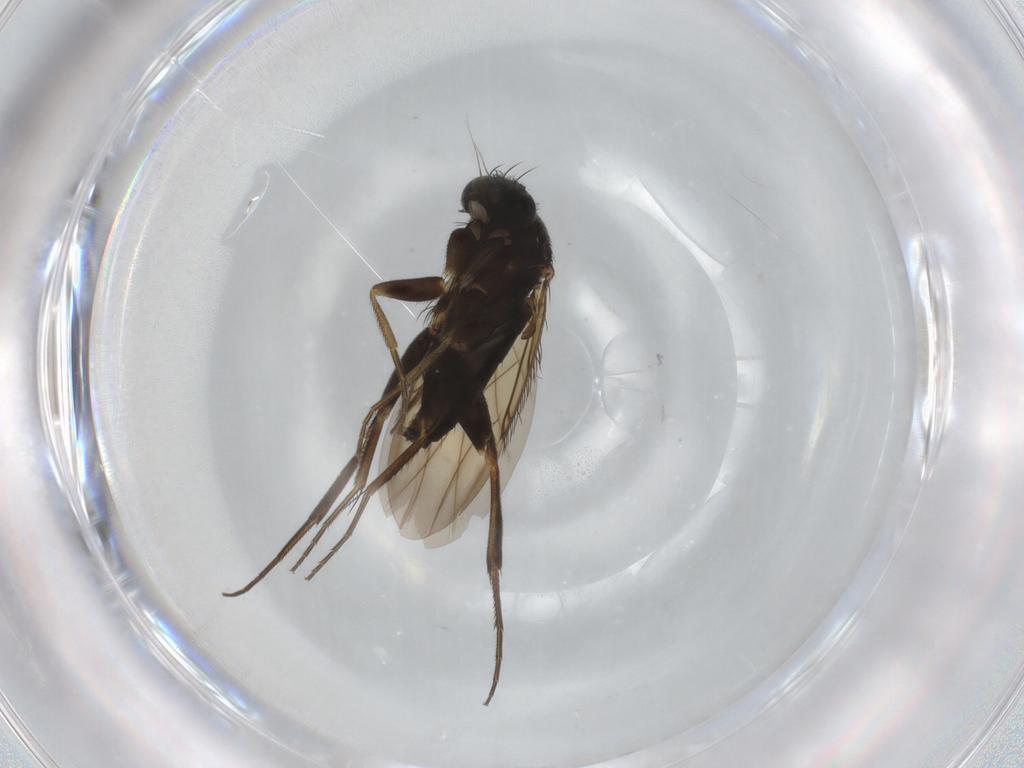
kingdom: Animalia
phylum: Arthropoda
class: Insecta
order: Diptera
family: Phoridae
